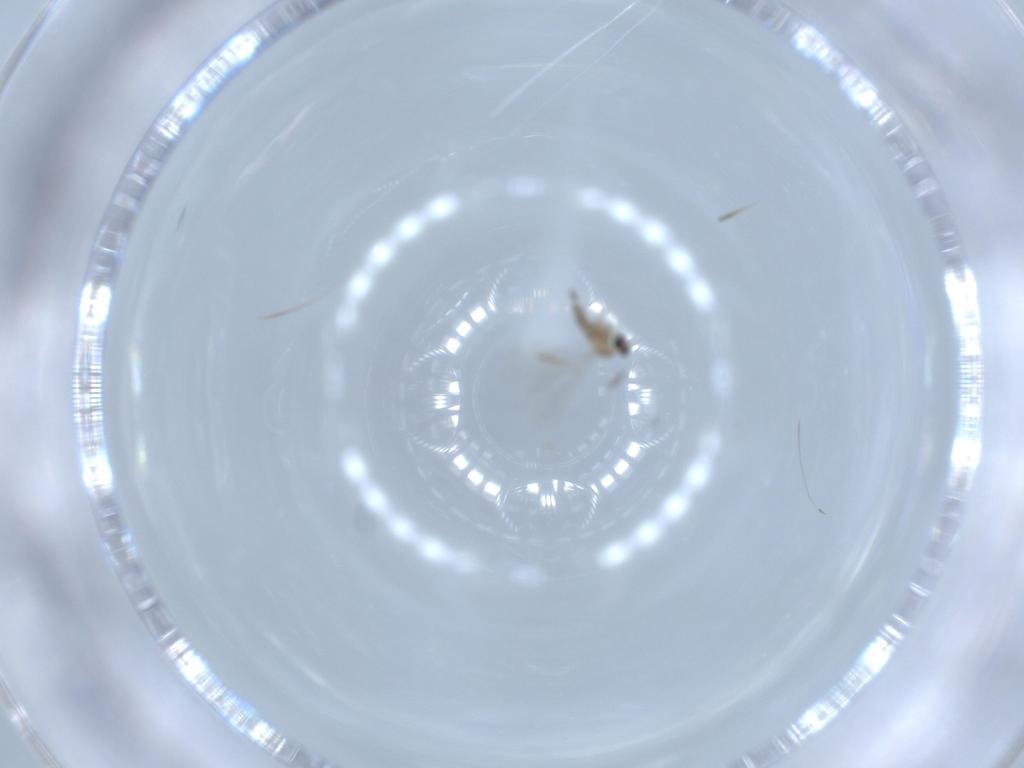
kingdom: Animalia
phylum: Arthropoda
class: Insecta
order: Diptera
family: Cecidomyiidae
